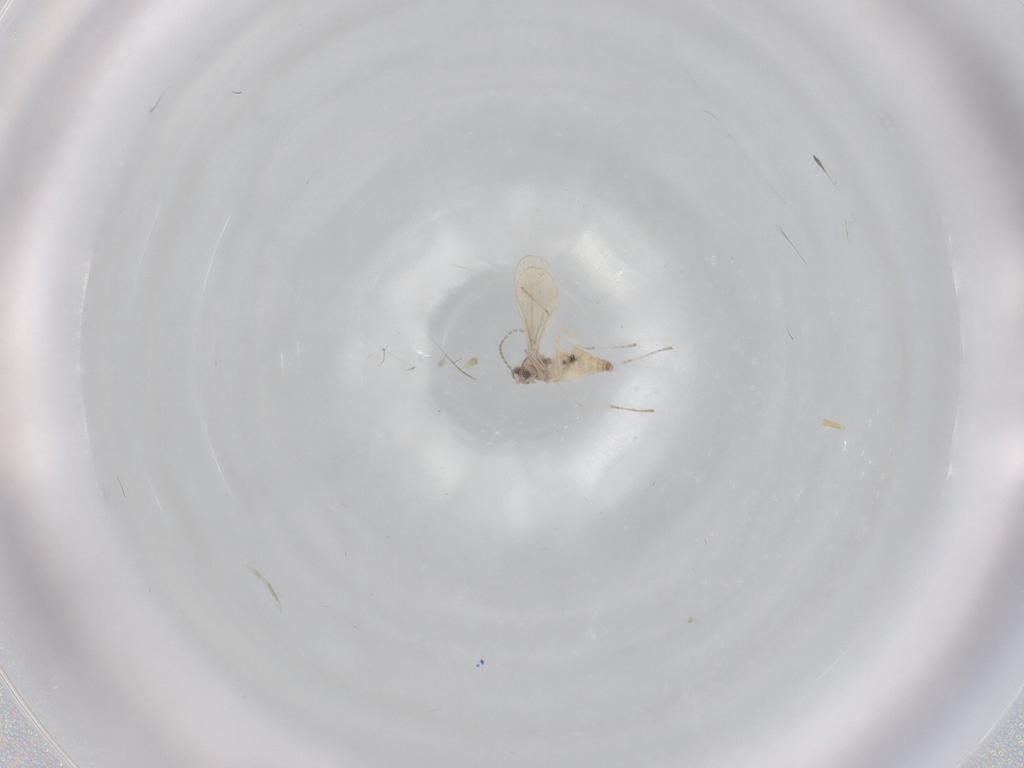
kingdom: Animalia
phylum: Arthropoda
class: Insecta
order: Diptera
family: Cecidomyiidae
